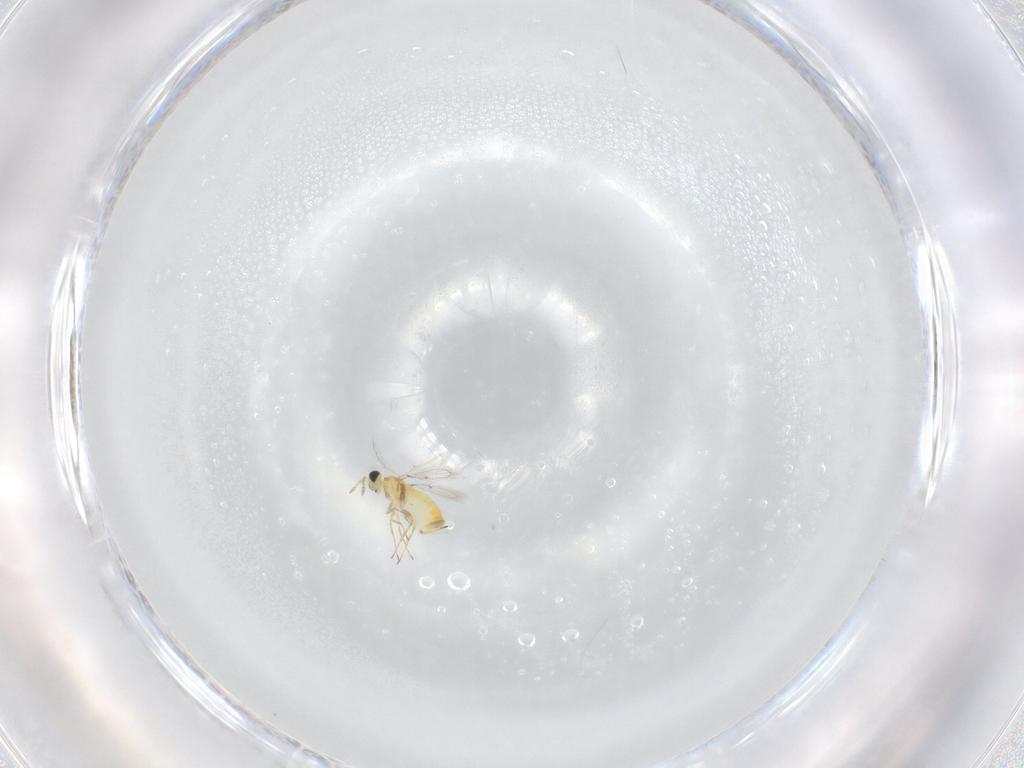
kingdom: Animalia
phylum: Arthropoda
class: Insecta
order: Hymenoptera
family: Trichogrammatidae
